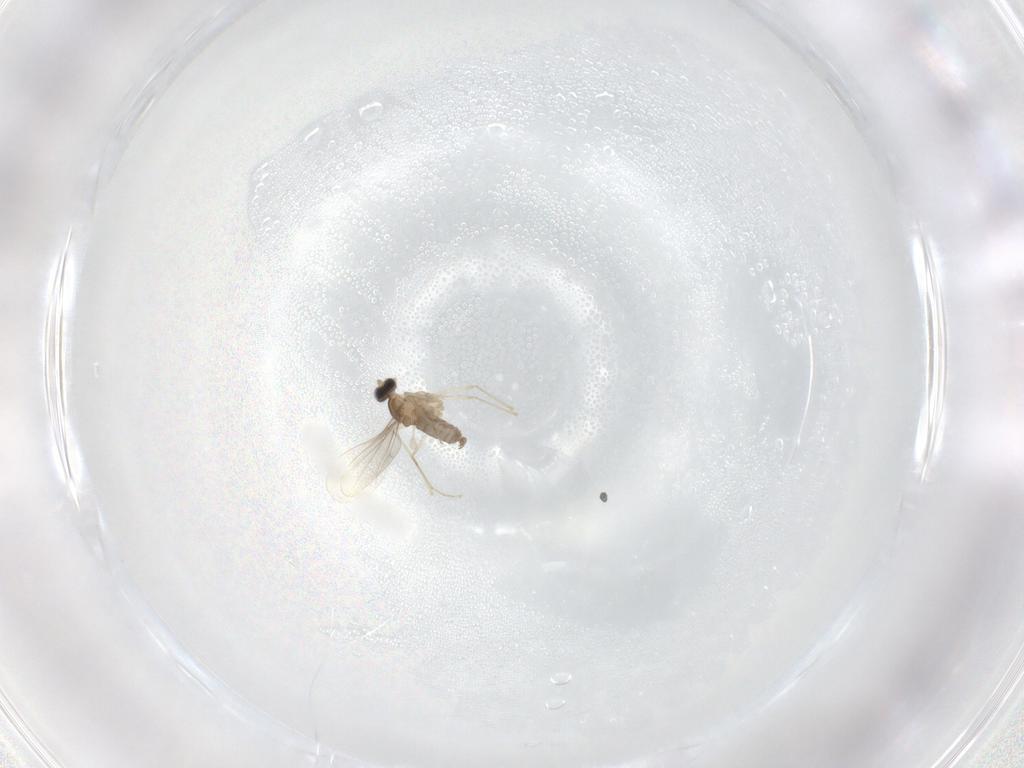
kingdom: Animalia
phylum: Arthropoda
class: Insecta
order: Diptera
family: Cecidomyiidae
